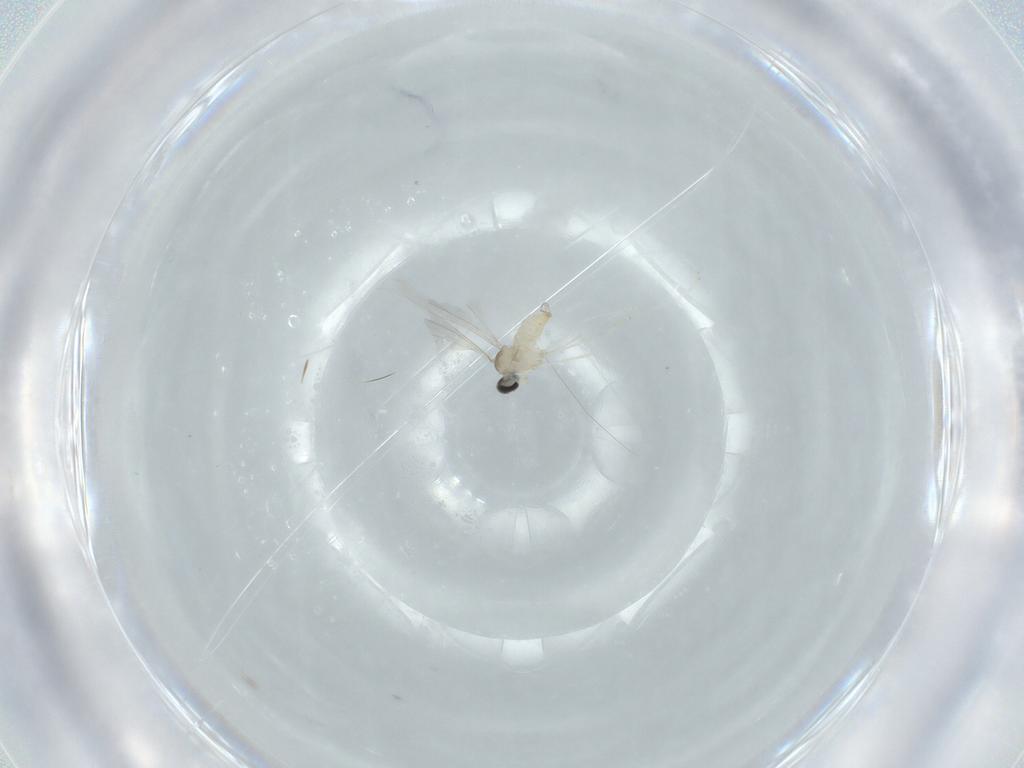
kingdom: Animalia
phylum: Arthropoda
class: Insecta
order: Diptera
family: Cecidomyiidae
